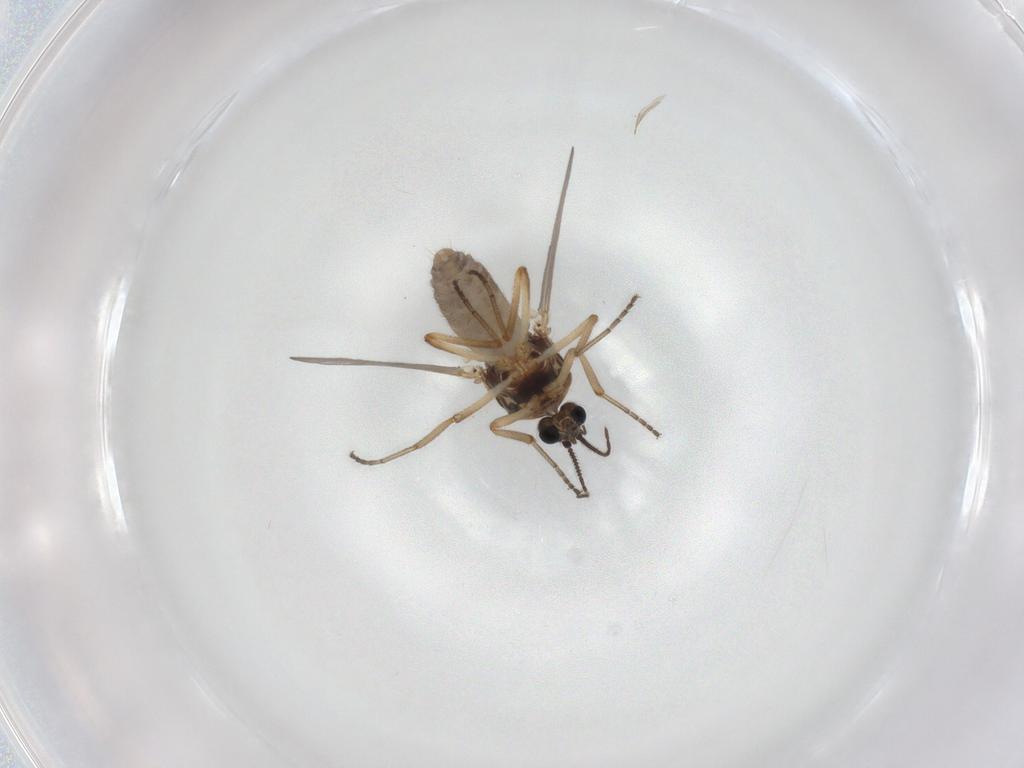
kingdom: Animalia
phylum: Arthropoda
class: Insecta
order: Diptera
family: Ceratopogonidae
